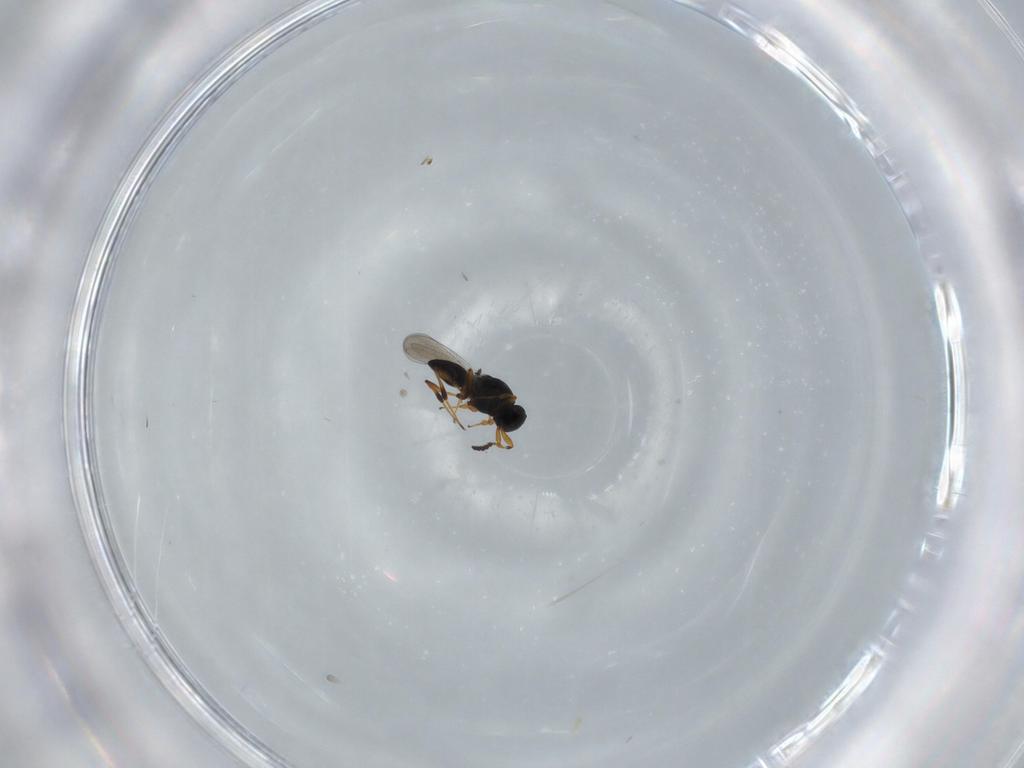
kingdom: Animalia
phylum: Arthropoda
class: Insecta
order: Hymenoptera
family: Platygastridae
